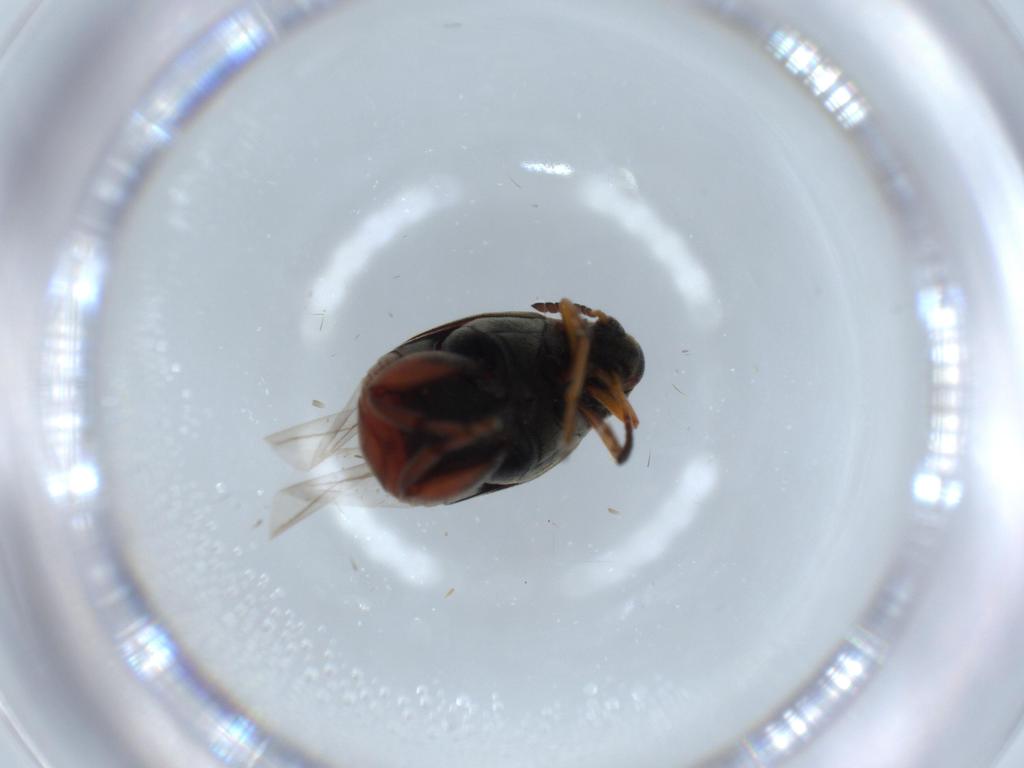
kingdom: Animalia
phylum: Arthropoda
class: Insecta
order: Coleoptera
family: Chrysomelidae
